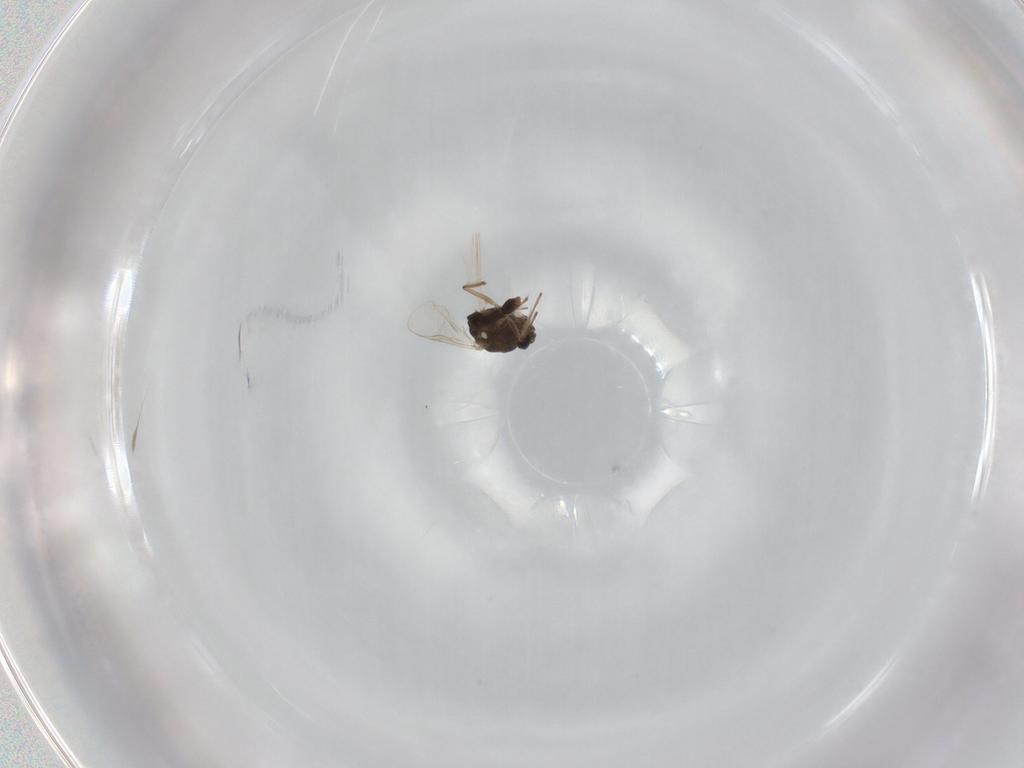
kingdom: Animalia
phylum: Arthropoda
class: Insecta
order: Diptera
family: Chironomidae
